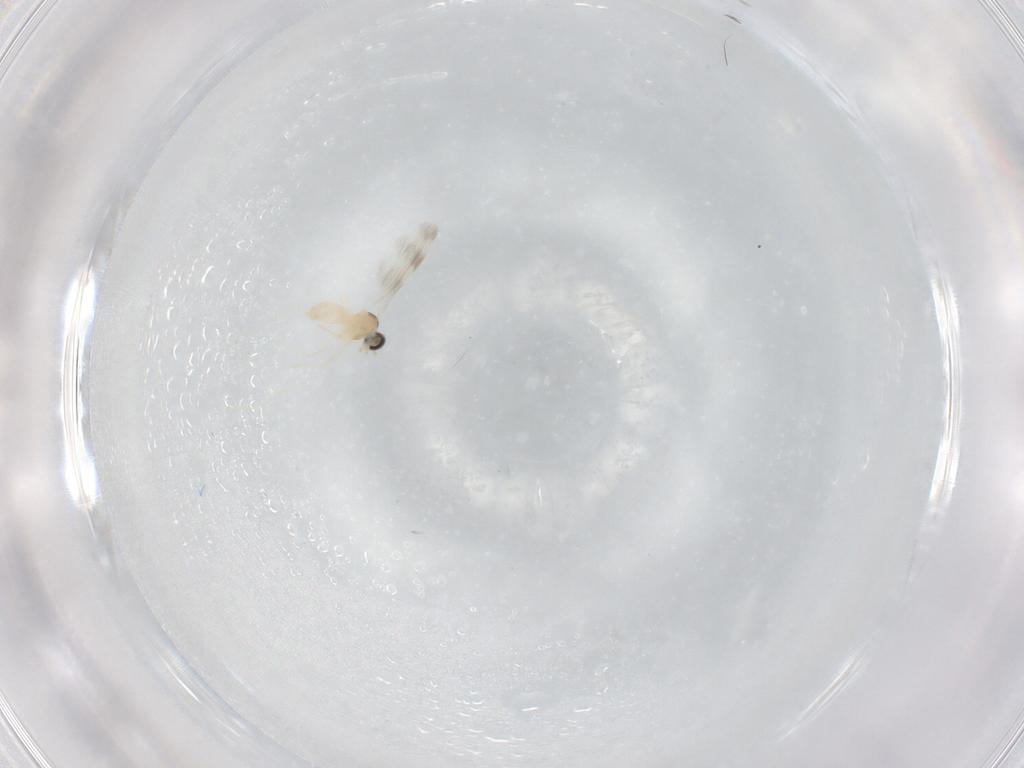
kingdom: Animalia
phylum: Arthropoda
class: Insecta
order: Diptera
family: Cecidomyiidae
